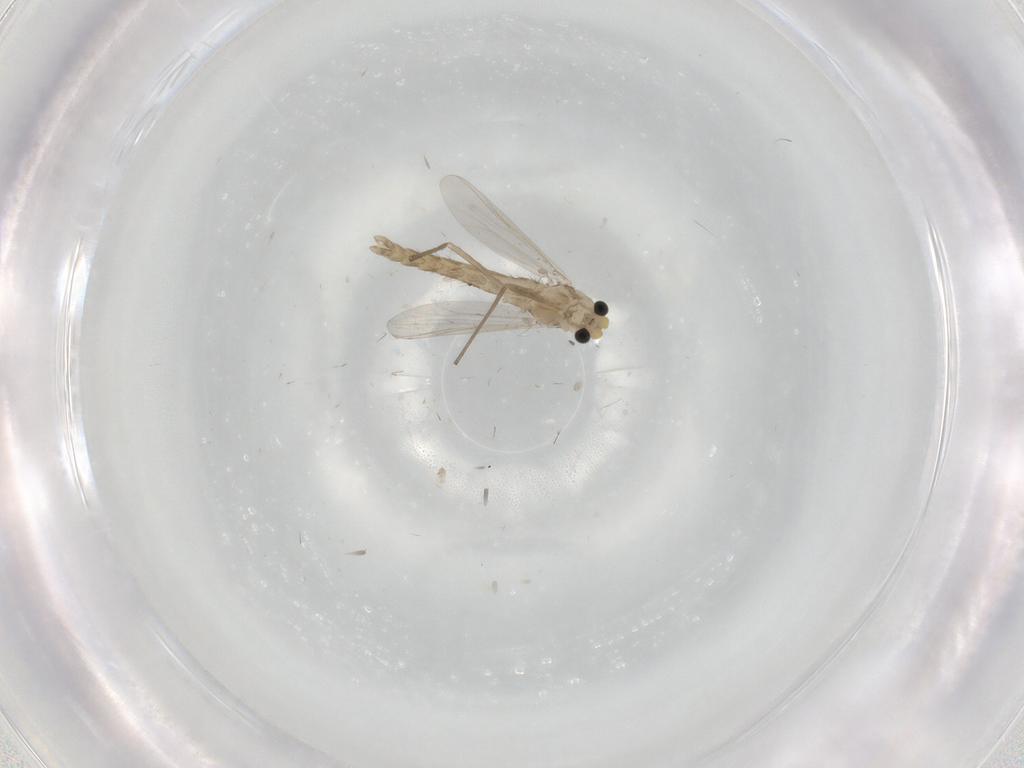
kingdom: Animalia
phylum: Arthropoda
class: Insecta
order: Diptera
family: Chironomidae
